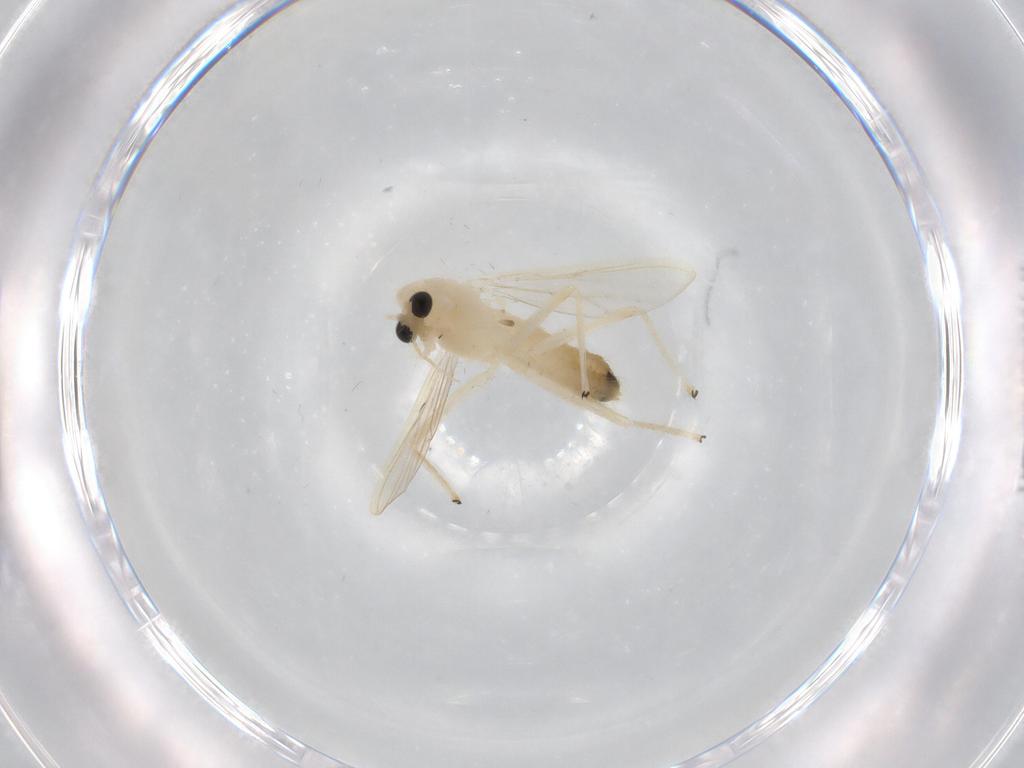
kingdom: Animalia
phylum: Arthropoda
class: Insecta
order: Diptera
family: Chironomidae
